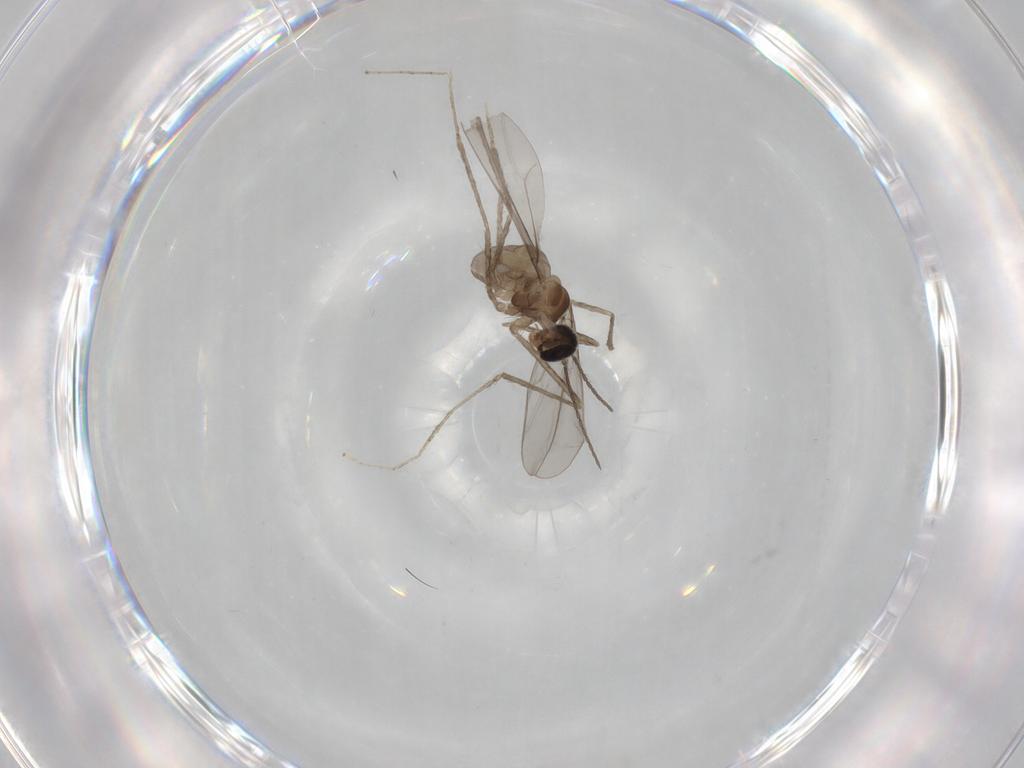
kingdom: Animalia
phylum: Arthropoda
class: Insecta
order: Diptera
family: Cecidomyiidae
